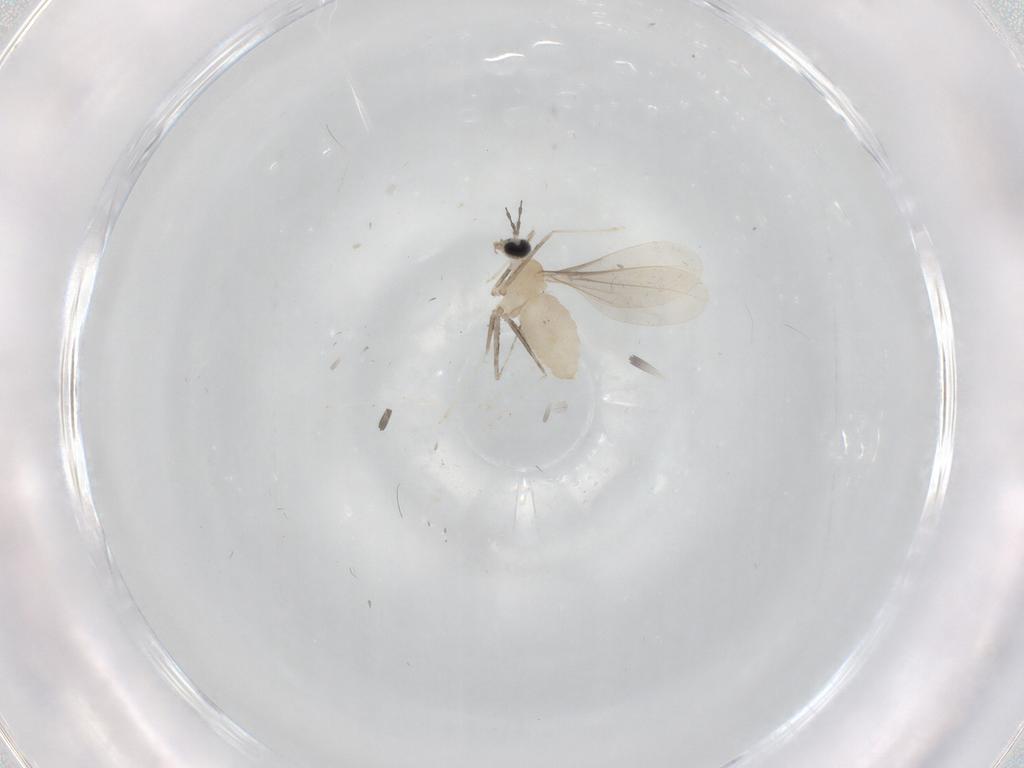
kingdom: Animalia
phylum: Arthropoda
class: Insecta
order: Diptera
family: Cecidomyiidae
